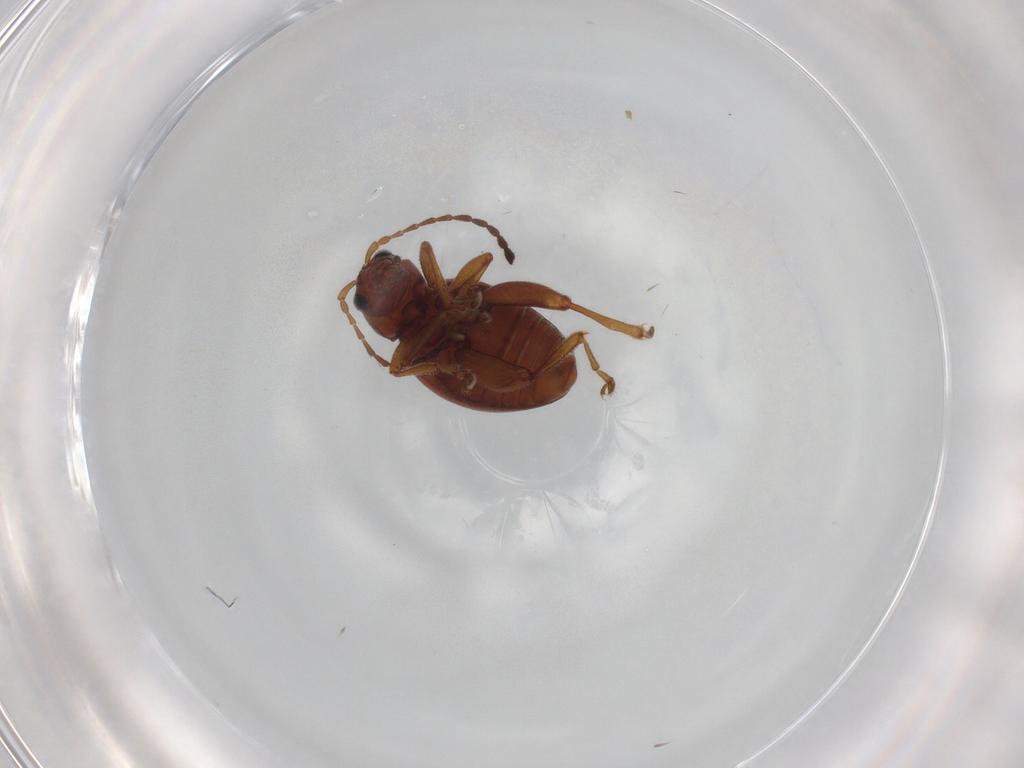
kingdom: Animalia
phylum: Arthropoda
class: Insecta
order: Coleoptera
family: Chrysomelidae
